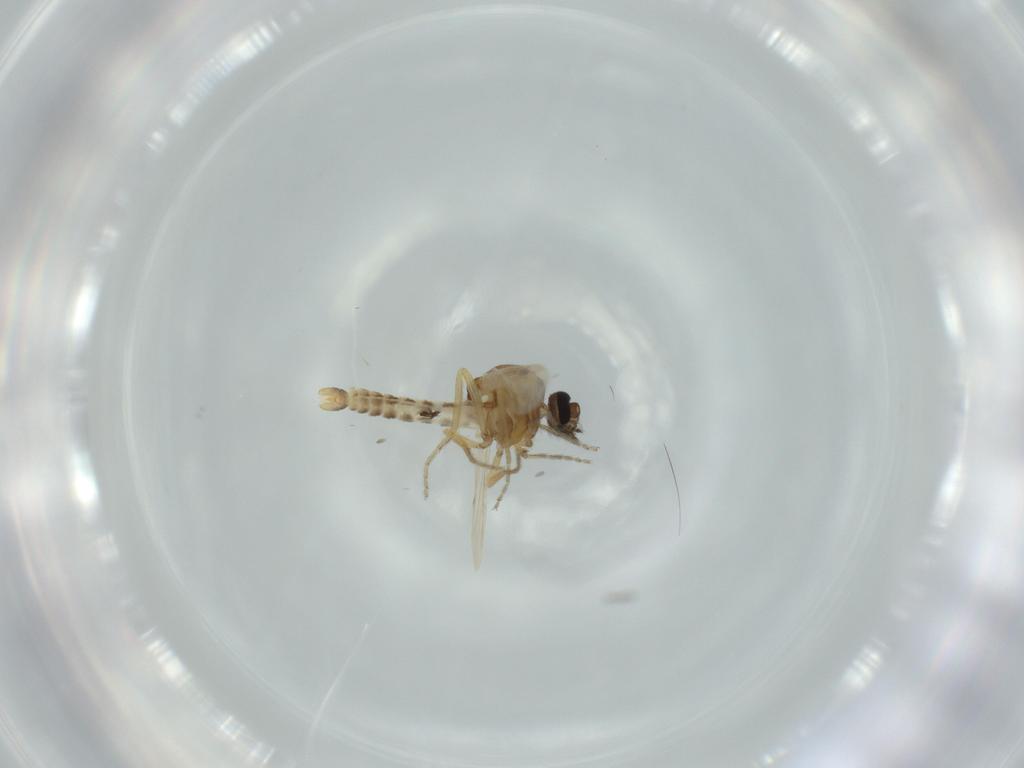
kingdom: Animalia
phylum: Arthropoda
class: Insecta
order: Diptera
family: Ceratopogonidae
